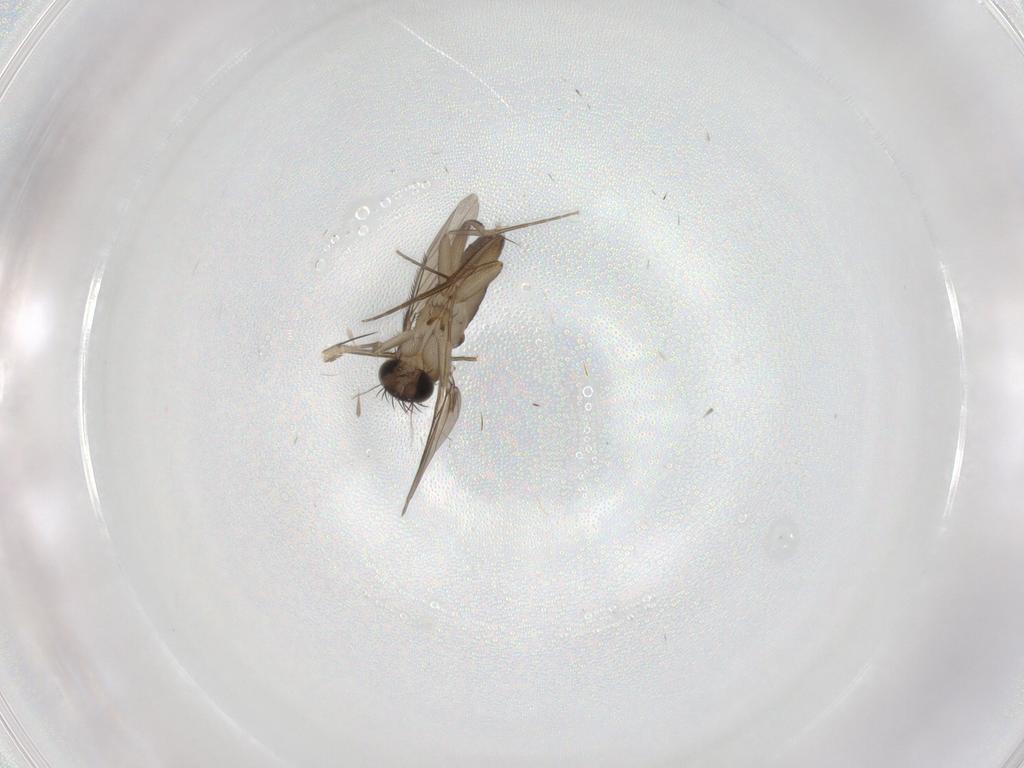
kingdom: Animalia
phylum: Arthropoda
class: Insecta
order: Diptera
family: Phoridae
